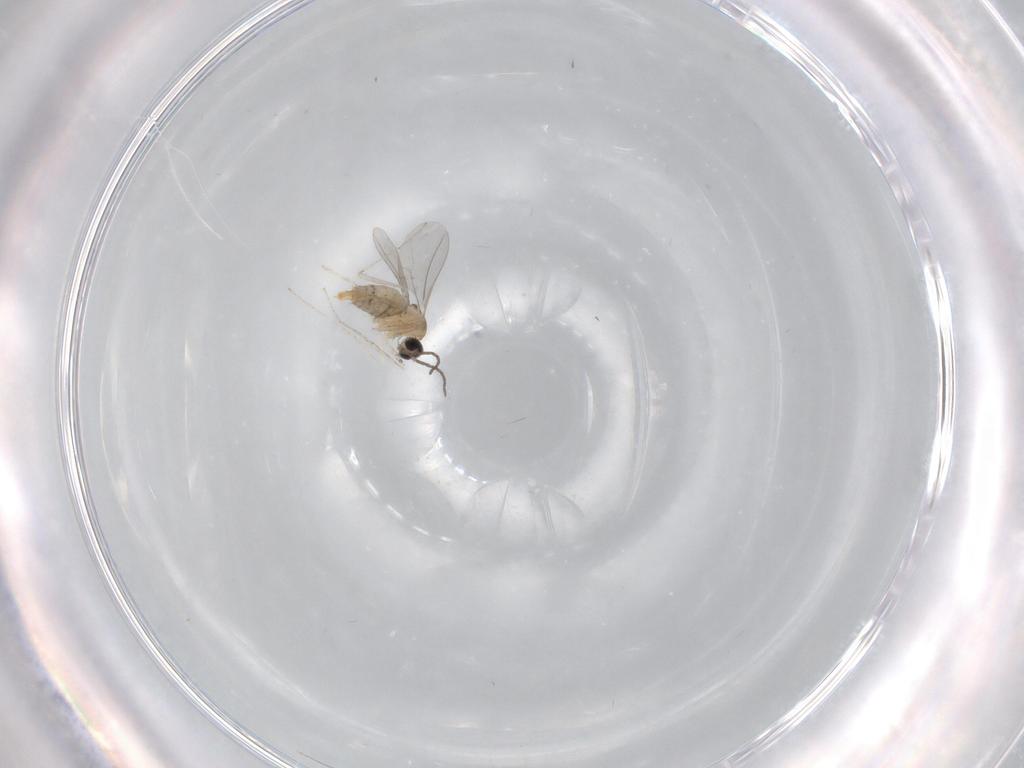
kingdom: Animalia
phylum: Arthropoda
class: Insecta
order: Diptera
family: Cecidomyiidae
